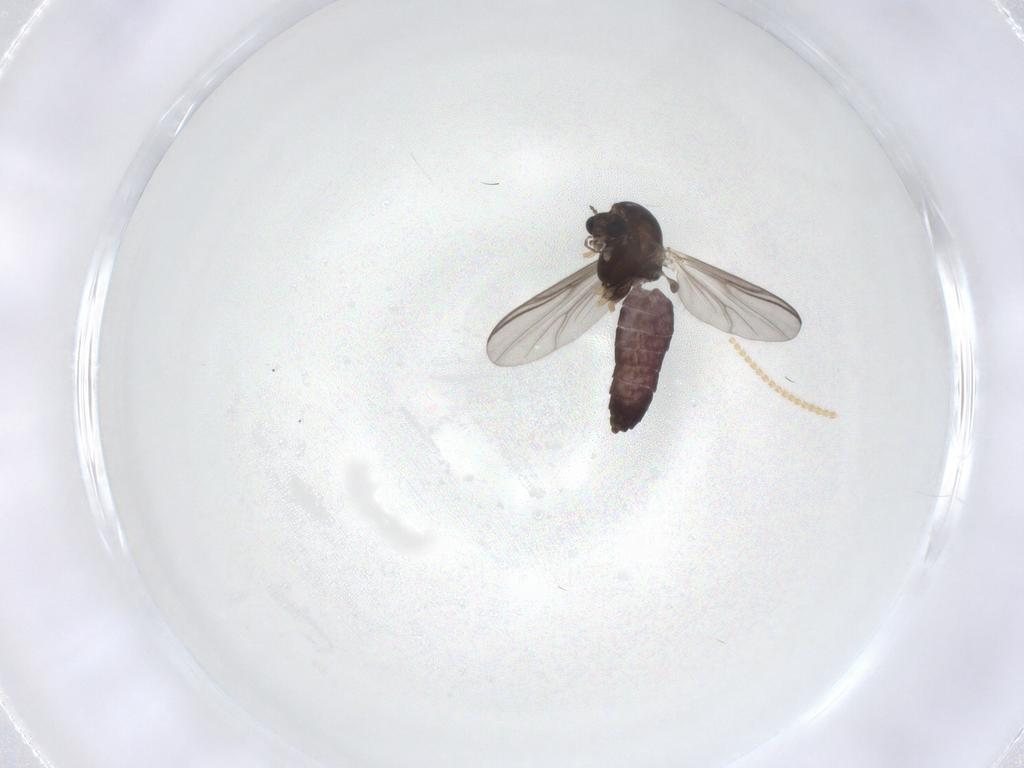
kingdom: Animalia
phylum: Arthropoda
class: Insecta
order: Diptera
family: Chironomidae
